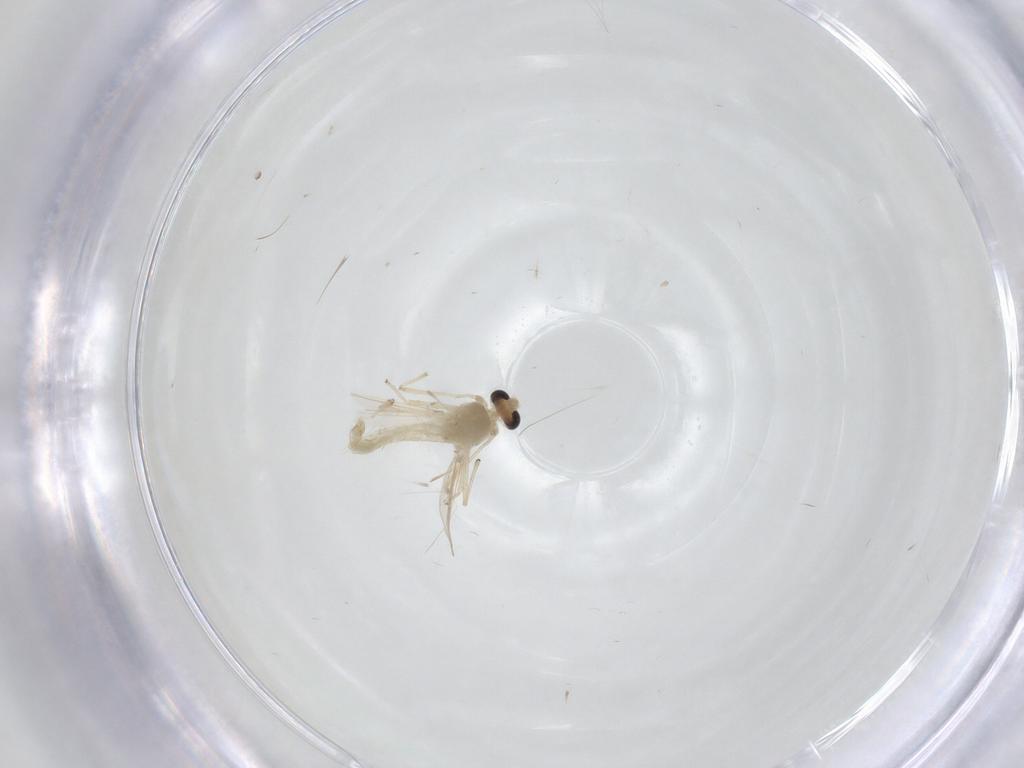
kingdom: Animalia
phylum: Arthropoda
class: Insecta
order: Diptera
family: Chironomidae
